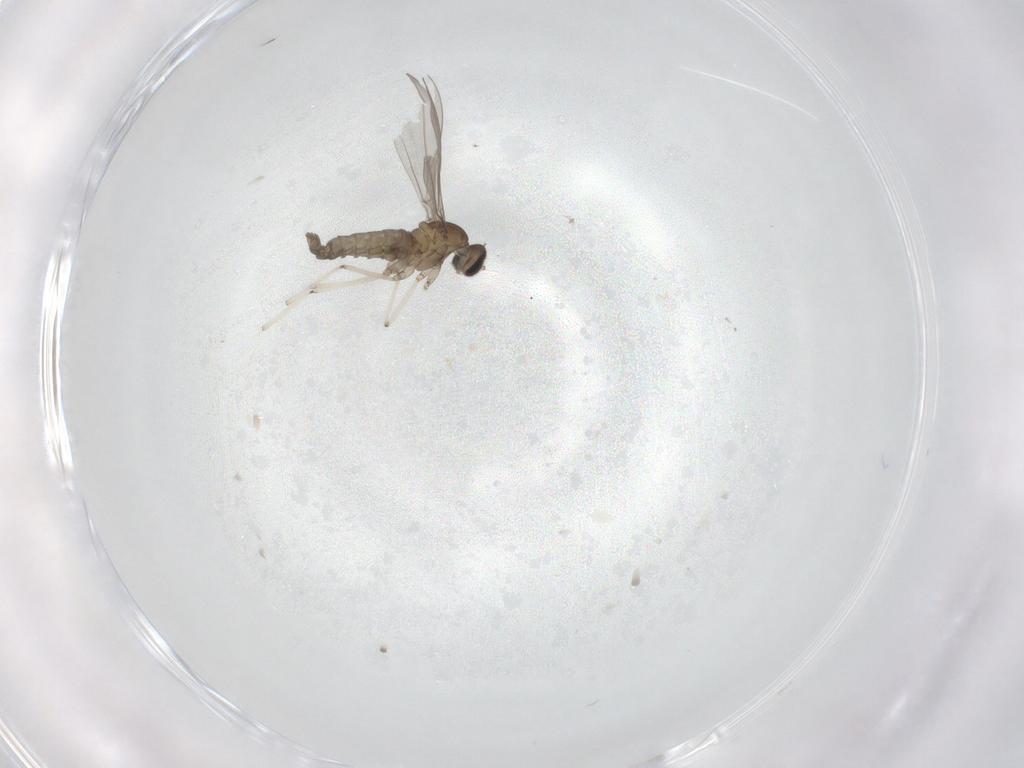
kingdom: Animalia
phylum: Arthropoda
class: Insecta
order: Diptera
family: Cecidomyiidae
